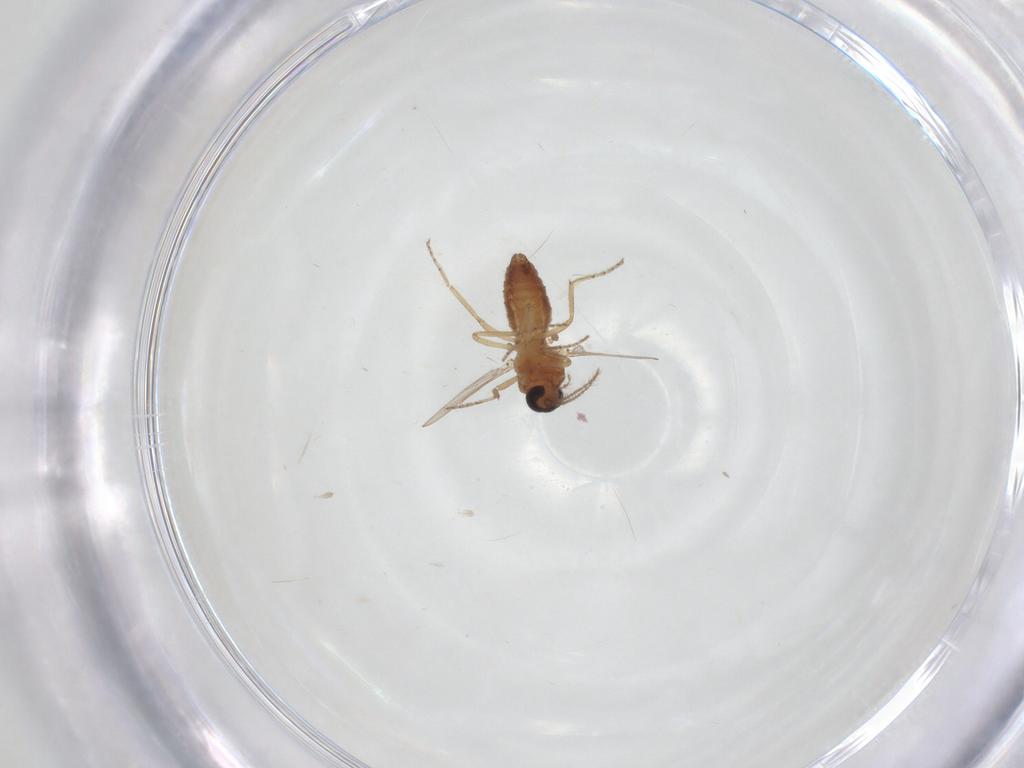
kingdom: Animalia
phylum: Arthropoda
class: Insecta
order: Diptera
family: Ceratopogonidae
